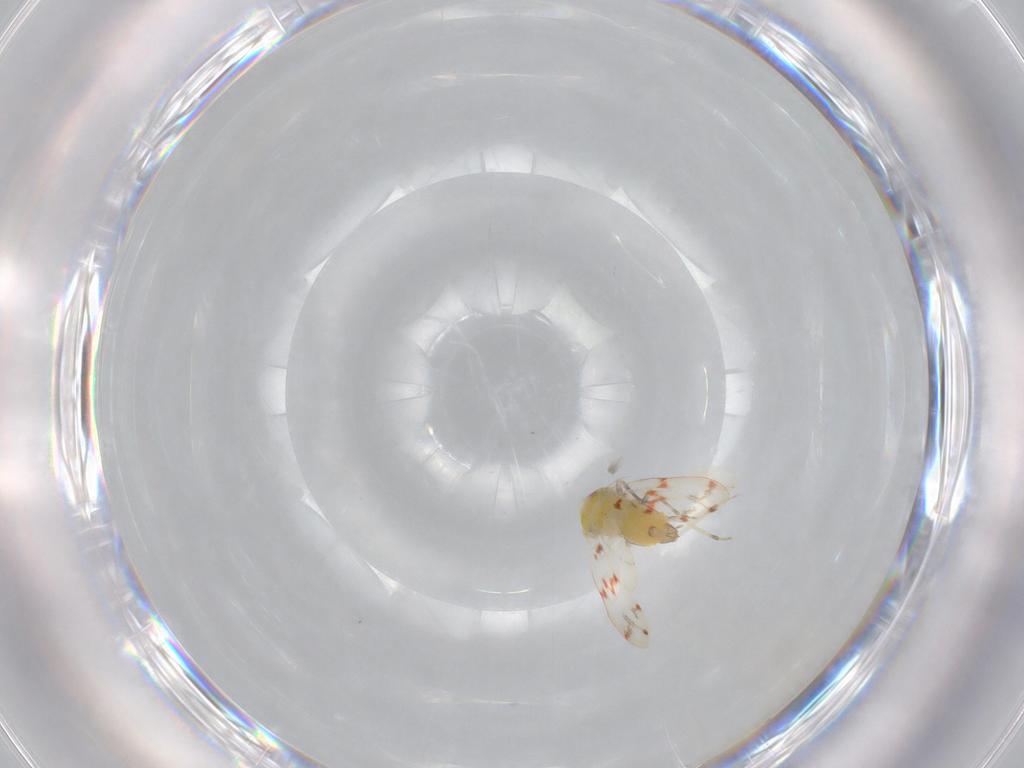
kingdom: Animalia
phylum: Arthropoda
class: Insecta
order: Hemiptera
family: Aleyrodidae
